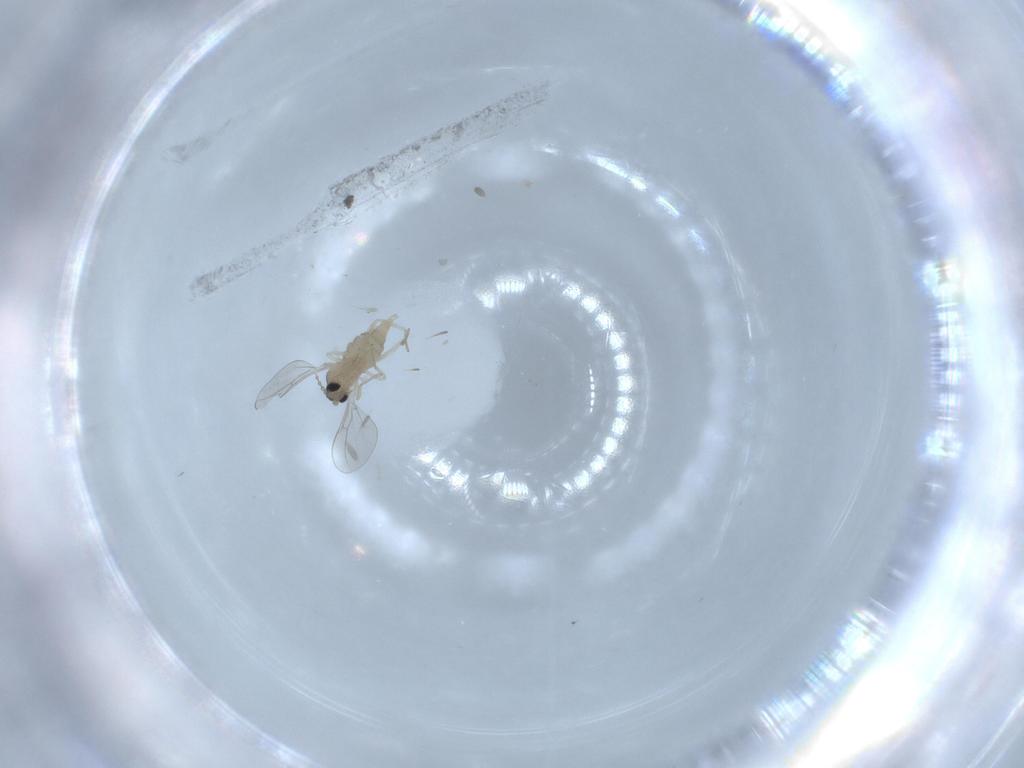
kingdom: Animalia
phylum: Arthropoda
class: Insecta
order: Diptera
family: Cecidomyiidae
